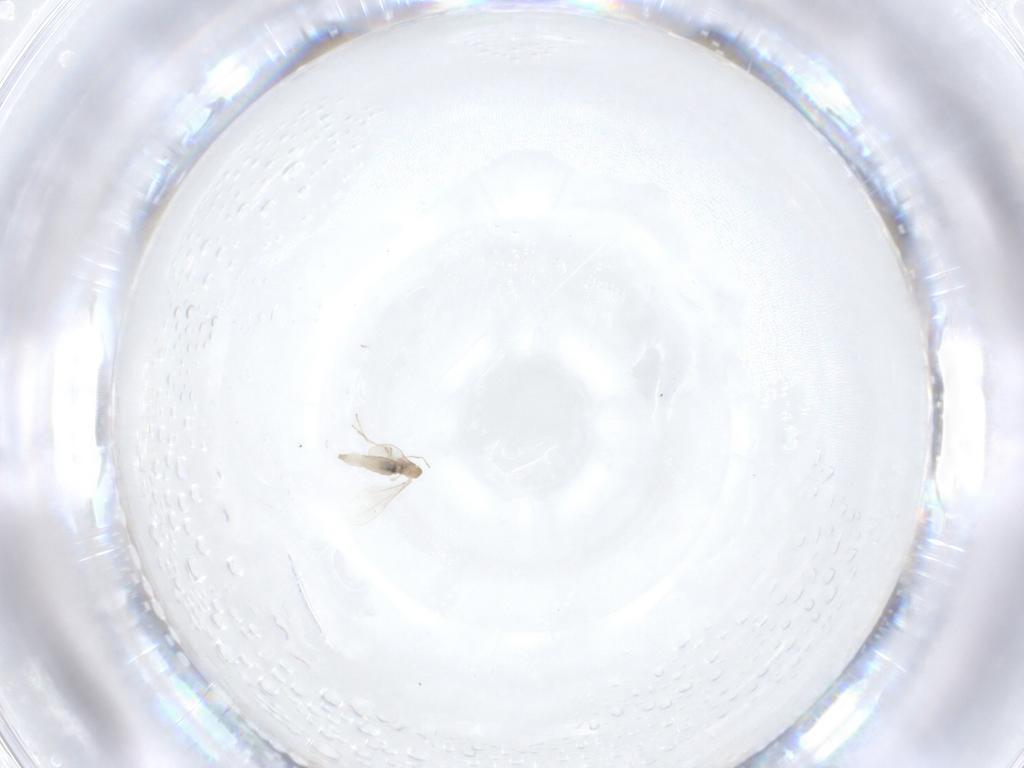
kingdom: Animalia
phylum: Arthropoda
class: Insecta
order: Diptera
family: Cecidomyiidae
